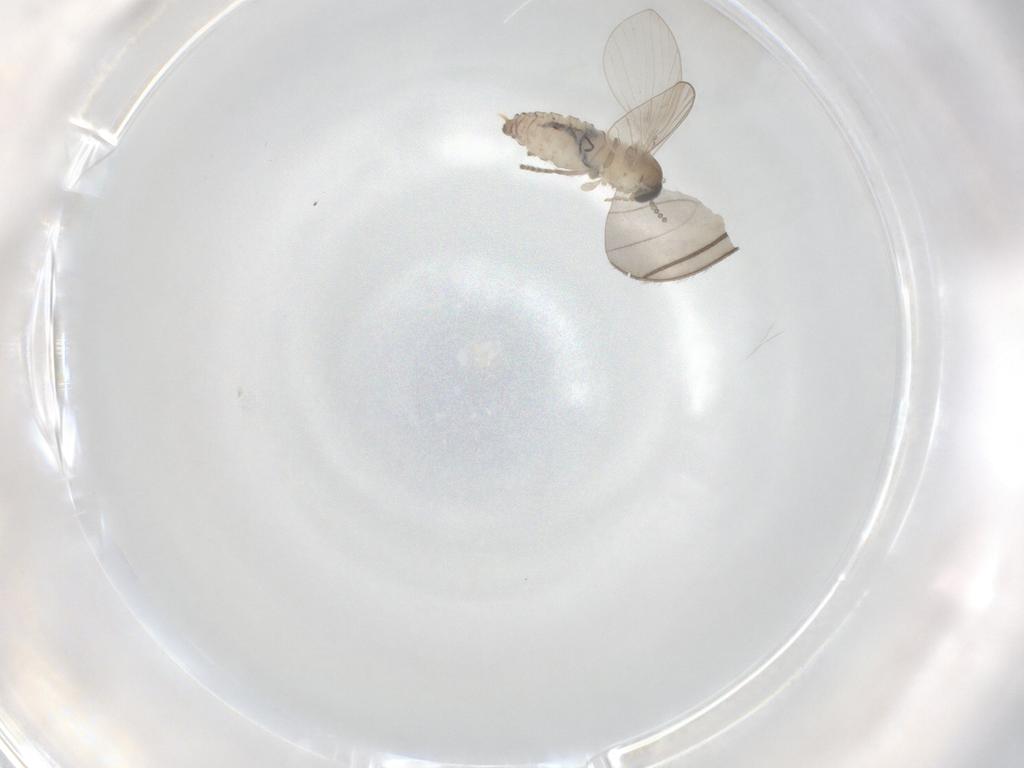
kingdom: Animalia
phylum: Arthropoda
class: Insecta
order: Diptera
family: Psychodidae
